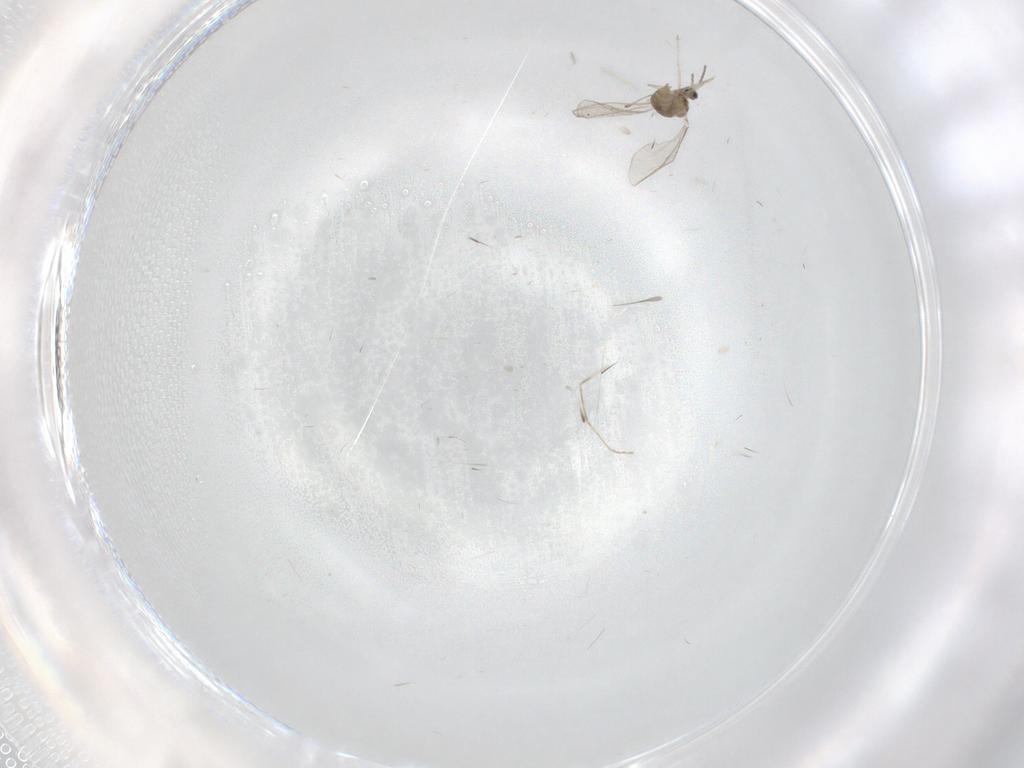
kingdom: Animalia
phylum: Arthropoda
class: Insecta
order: Diptera
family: Cecidomyiidae
